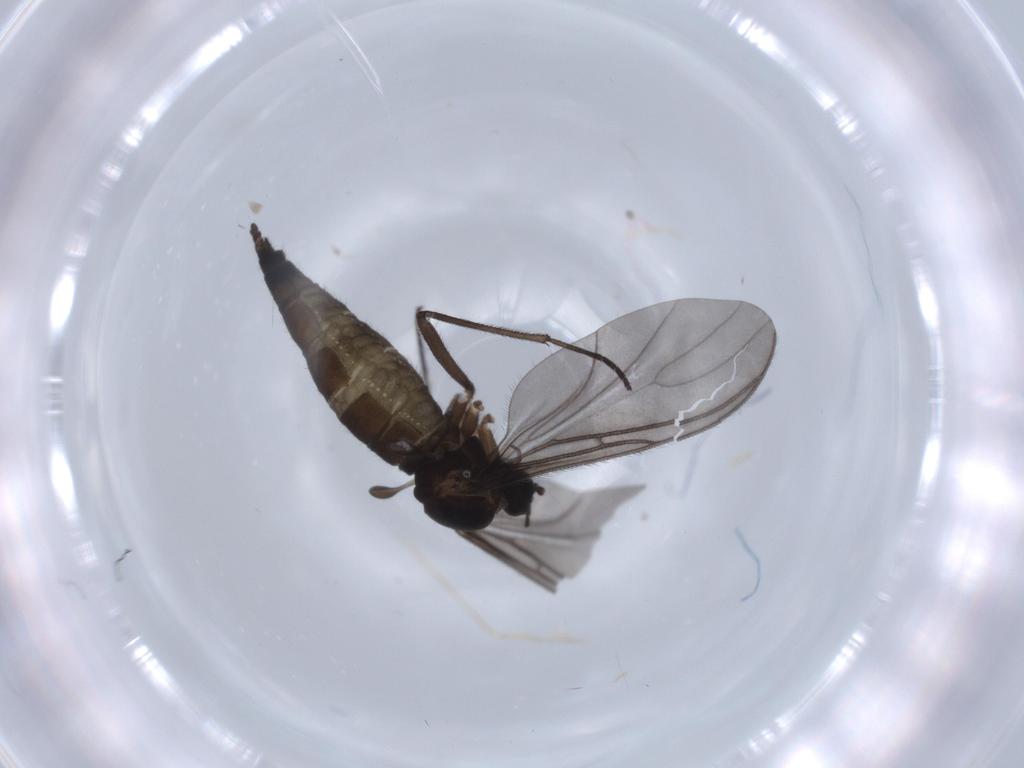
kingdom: Animalia
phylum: Arthropoda
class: Insecta
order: Diptera
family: Sciaridae
